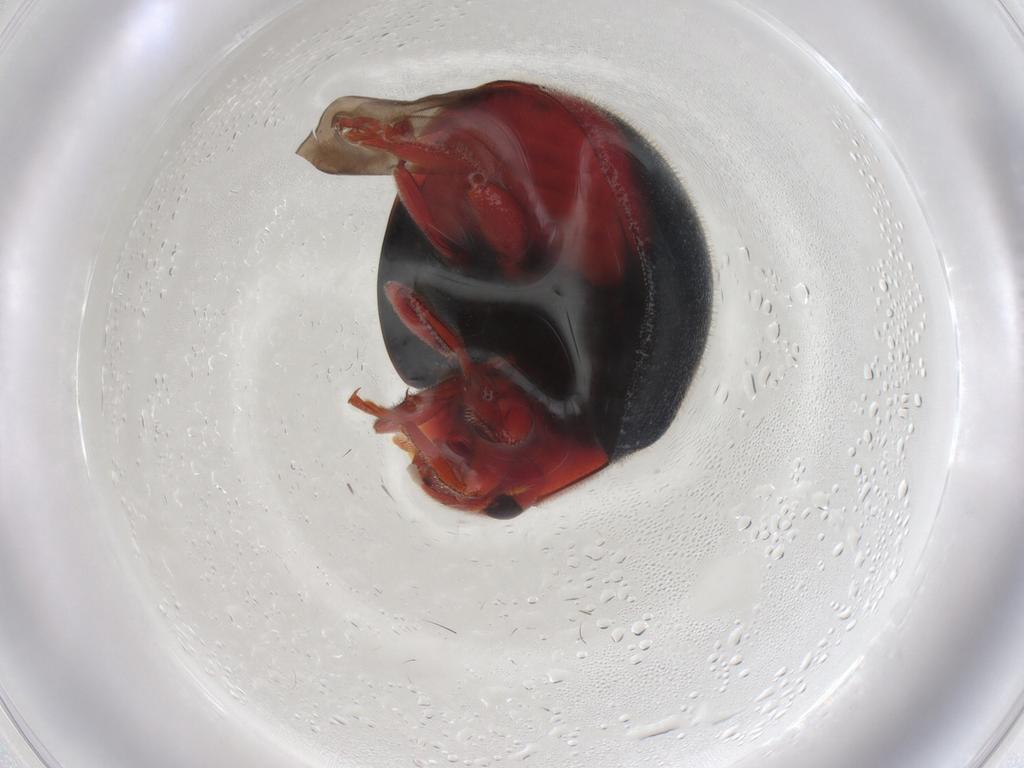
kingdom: Animalia
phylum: Arthropoda
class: Insecta
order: Coleoptera
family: Coccinellidae
